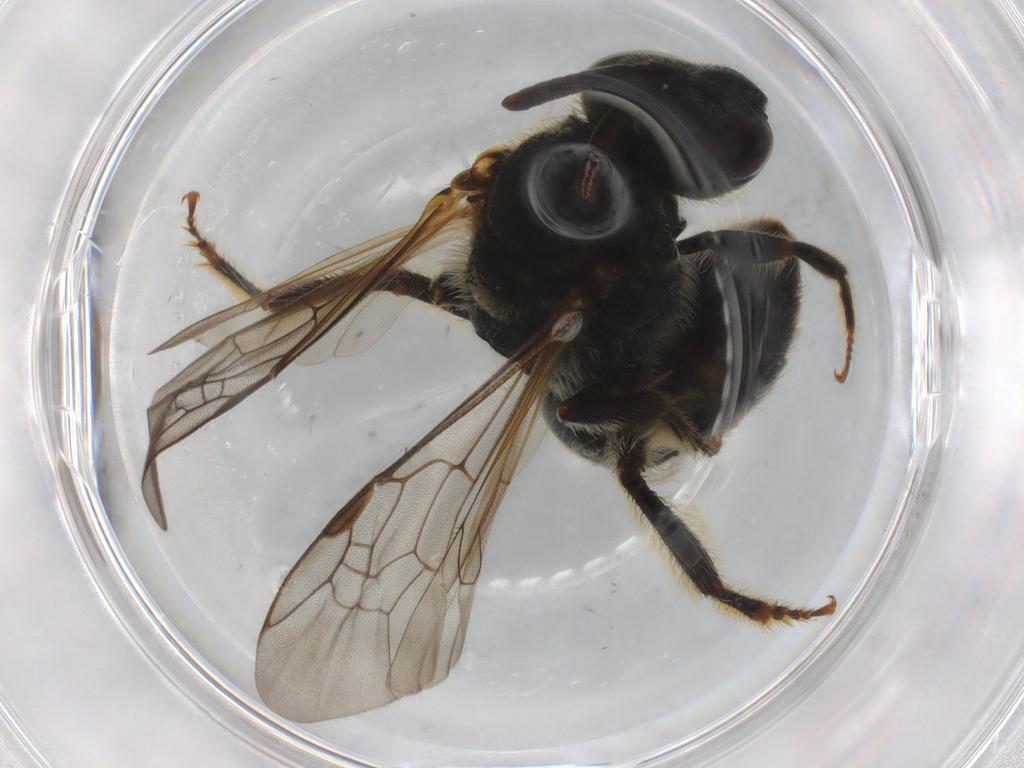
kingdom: Animalia
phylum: Arthropoda
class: Insecta
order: Hymenoptera
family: Halictidae
